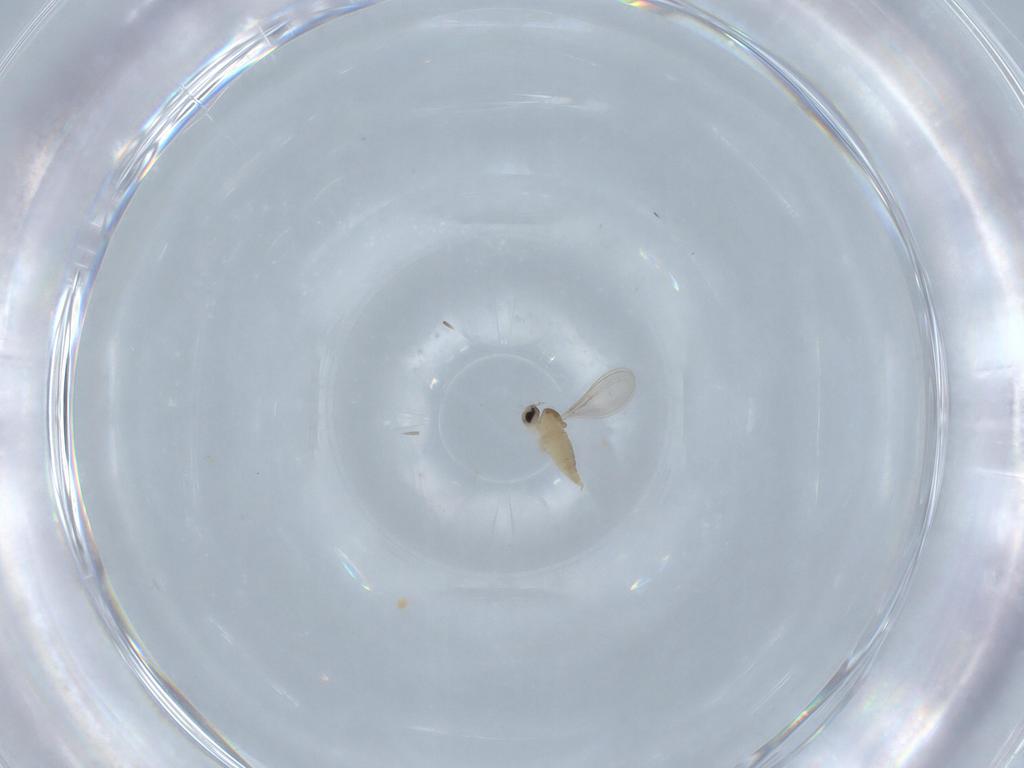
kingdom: Animalia
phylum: Arthropoda
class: Insecta
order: Diptera
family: Cecidomyiidae
